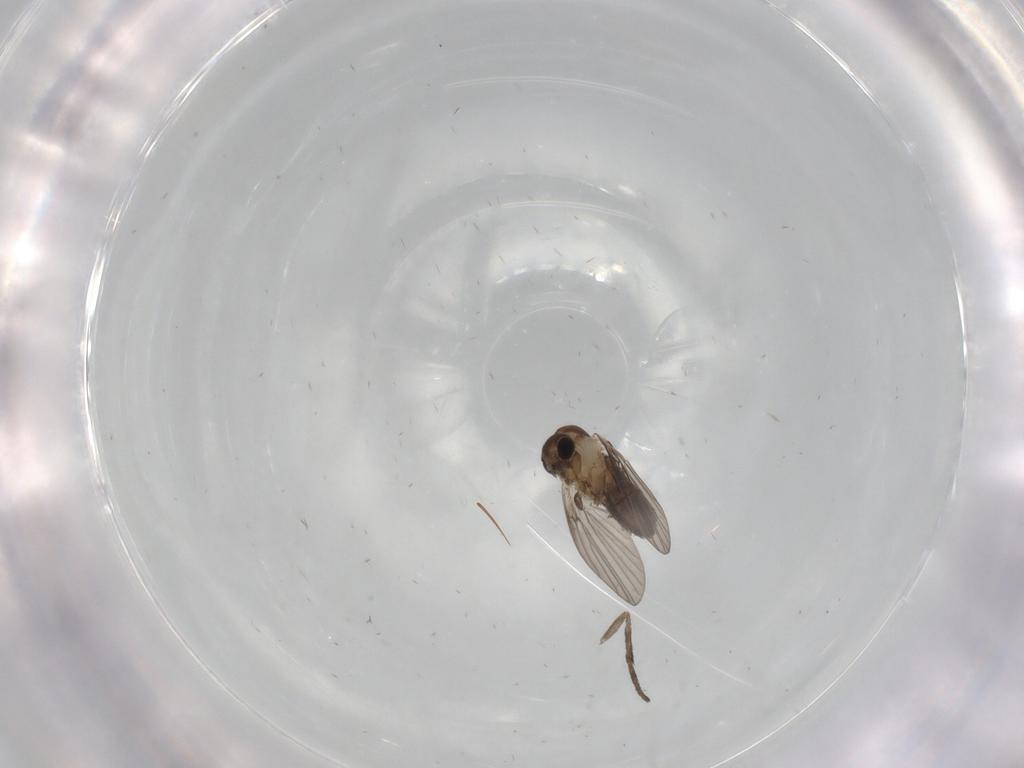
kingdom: Animalia
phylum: Arthropoda
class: Insecta
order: Diptera
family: Psychodidae
